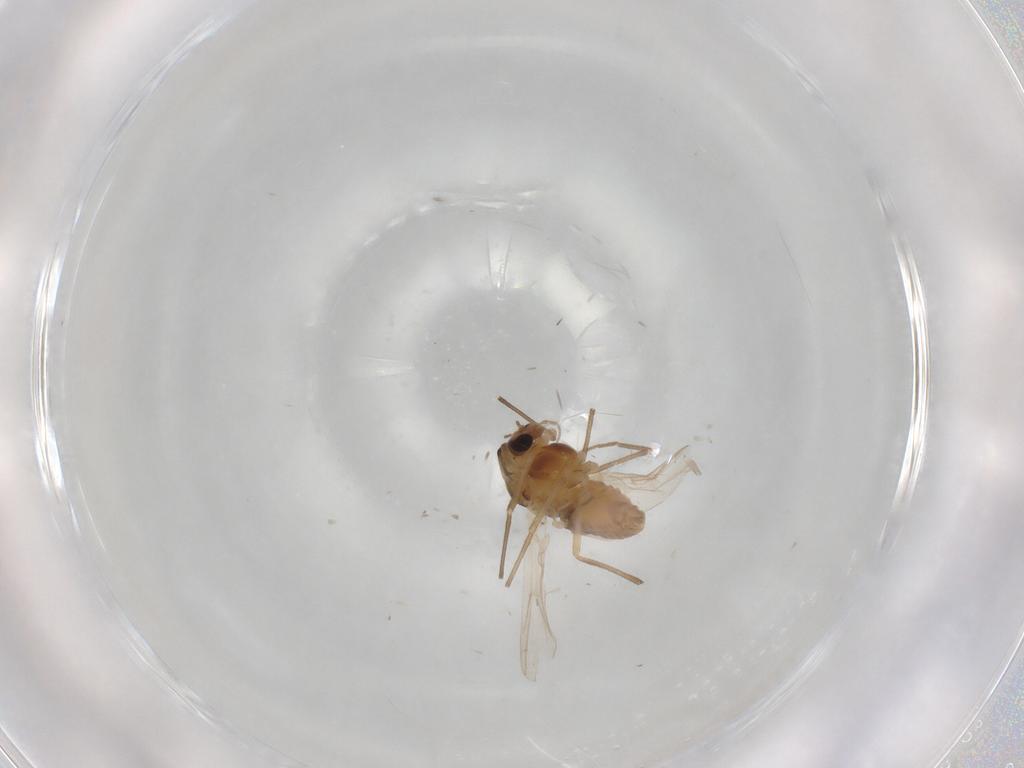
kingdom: Animalia
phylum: Arthropoda
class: Insecta
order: Diptera
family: Chironomidae
